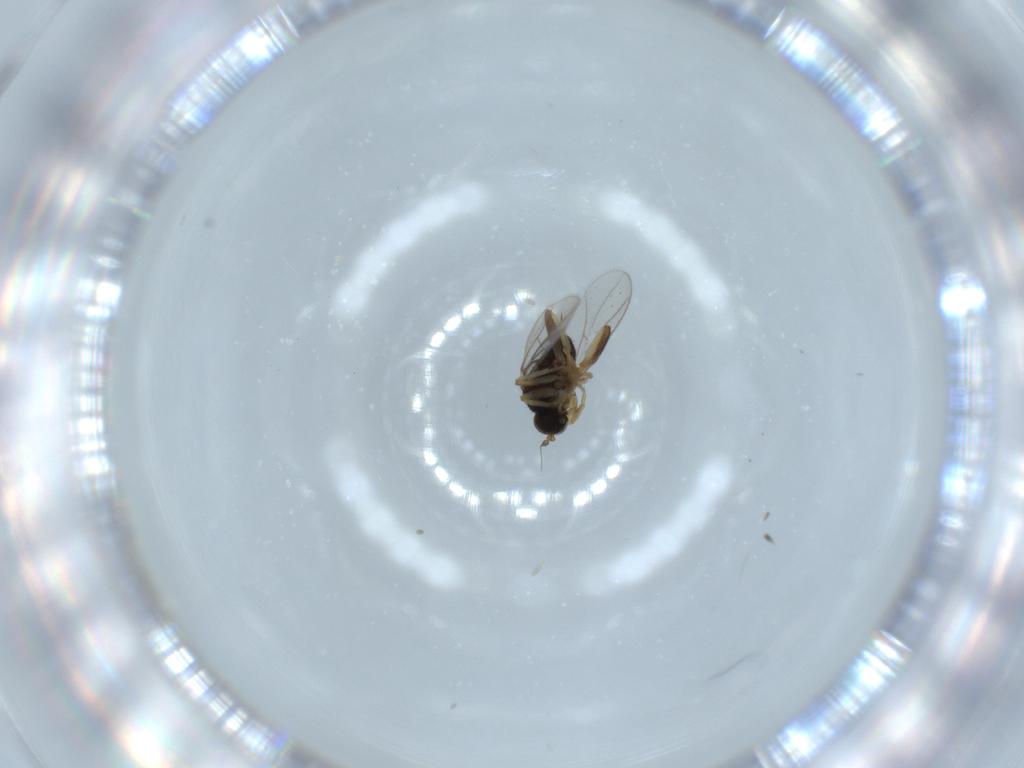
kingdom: Animalia
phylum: Arthropoda
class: Insecta
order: Diptera
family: Hybotidae
